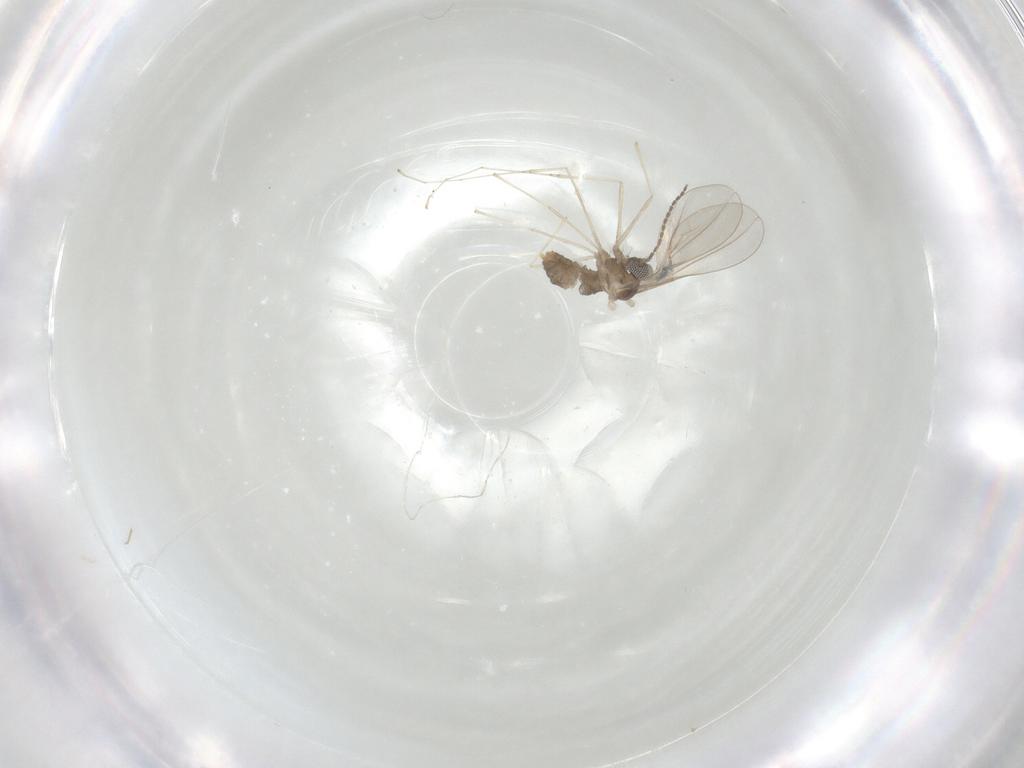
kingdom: Animalia
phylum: Arthropoda
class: Insecta
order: Diptera
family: Cecidomyiidae
